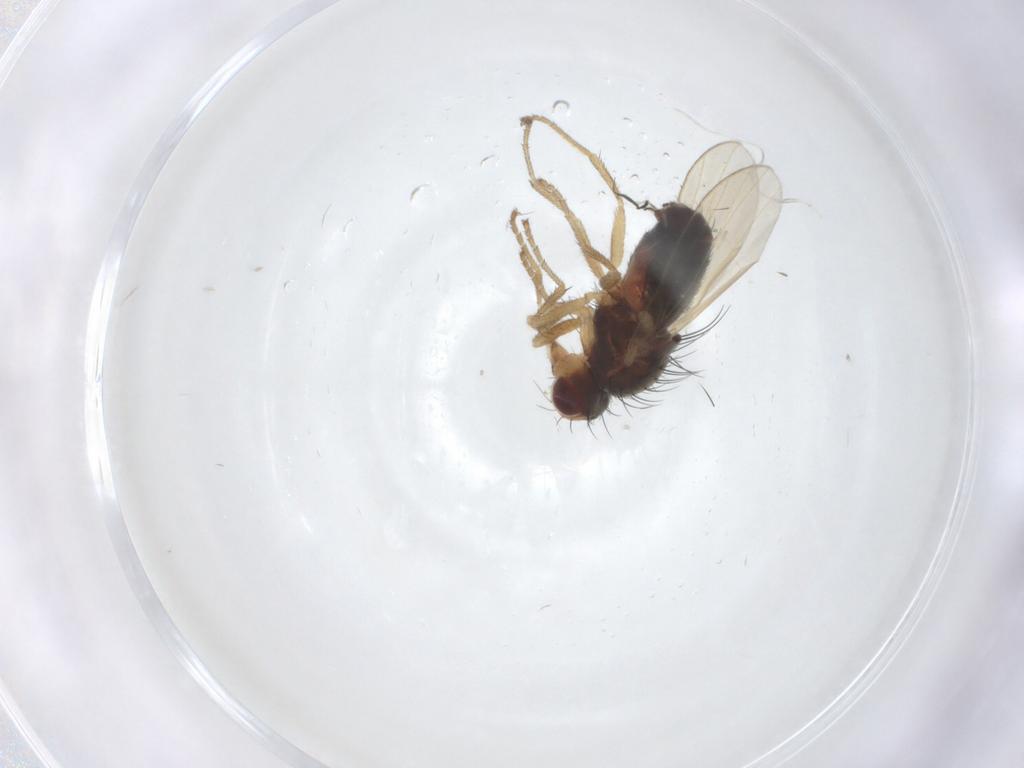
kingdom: Animalia
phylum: Arthropoda
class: Insecta
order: Diptera
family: Heleomyzidae
